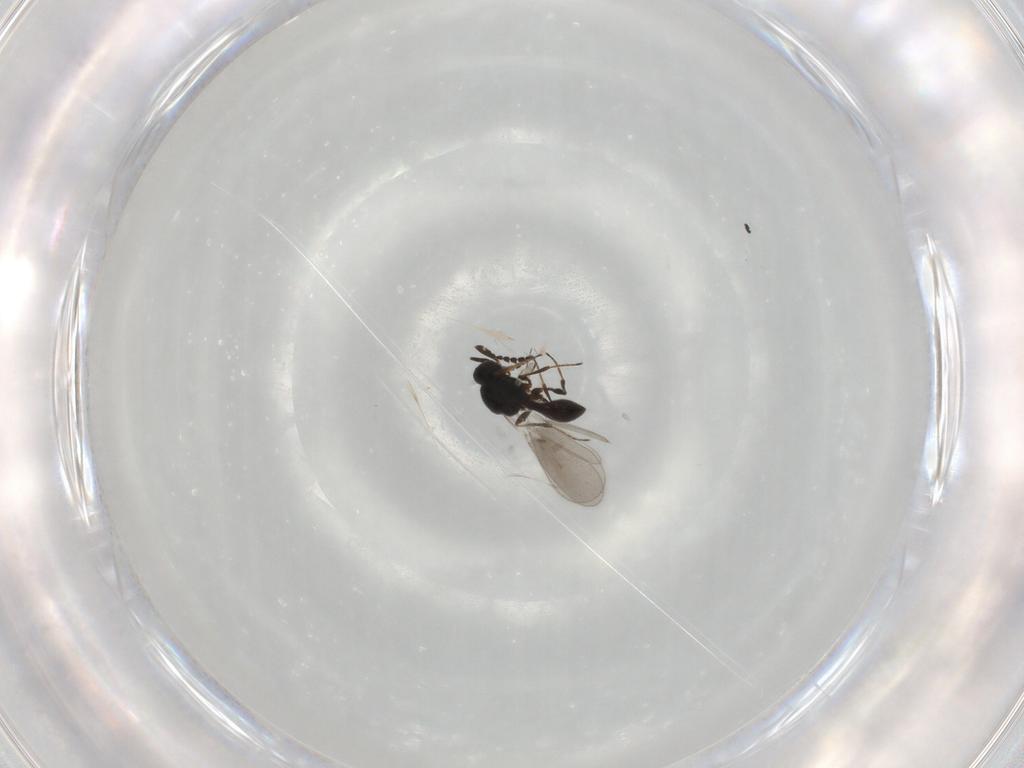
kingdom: Animalia
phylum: Arthropoda
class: Insecta
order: Hymenoptera
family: Platygastridae
